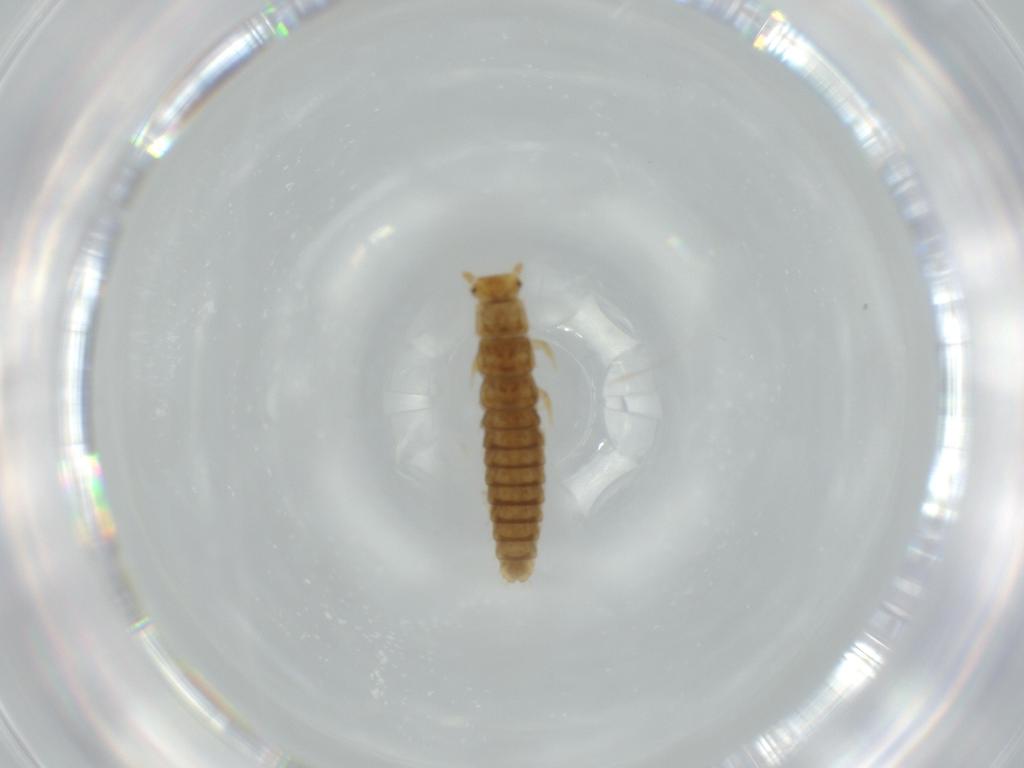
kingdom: Animalia
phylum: Arthropoda
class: Collembola
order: Symphypleona
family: Sminthurididae
